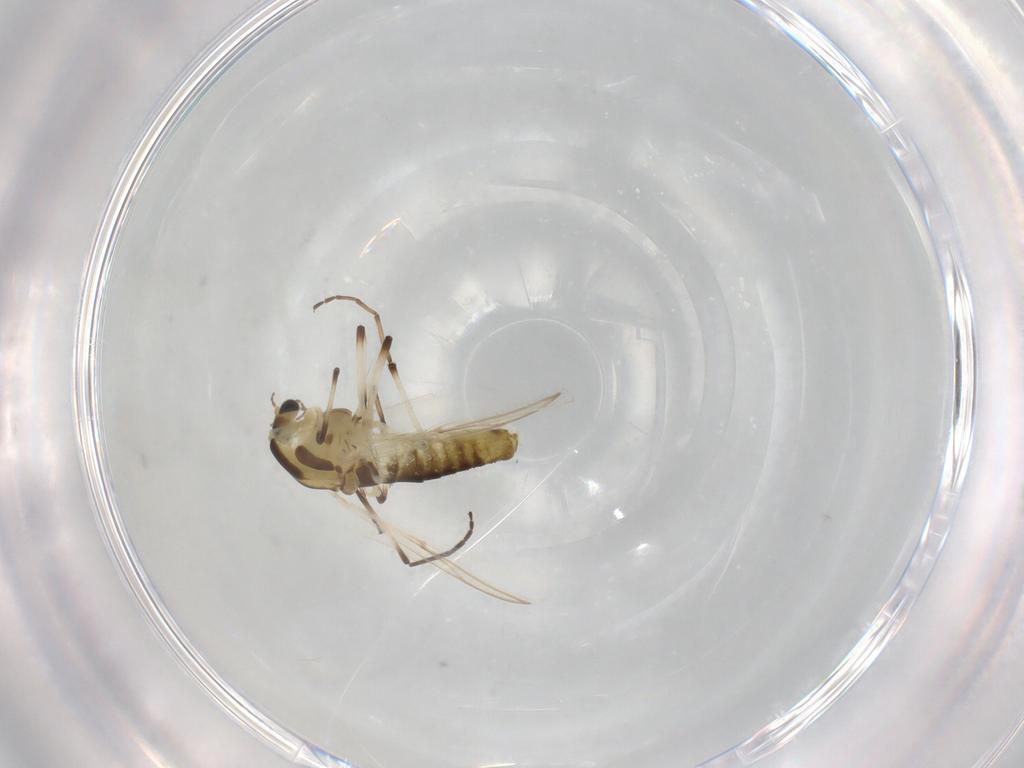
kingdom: Animalia
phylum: Arthropoda
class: Insecta
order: Diptera
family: Chironomidae
